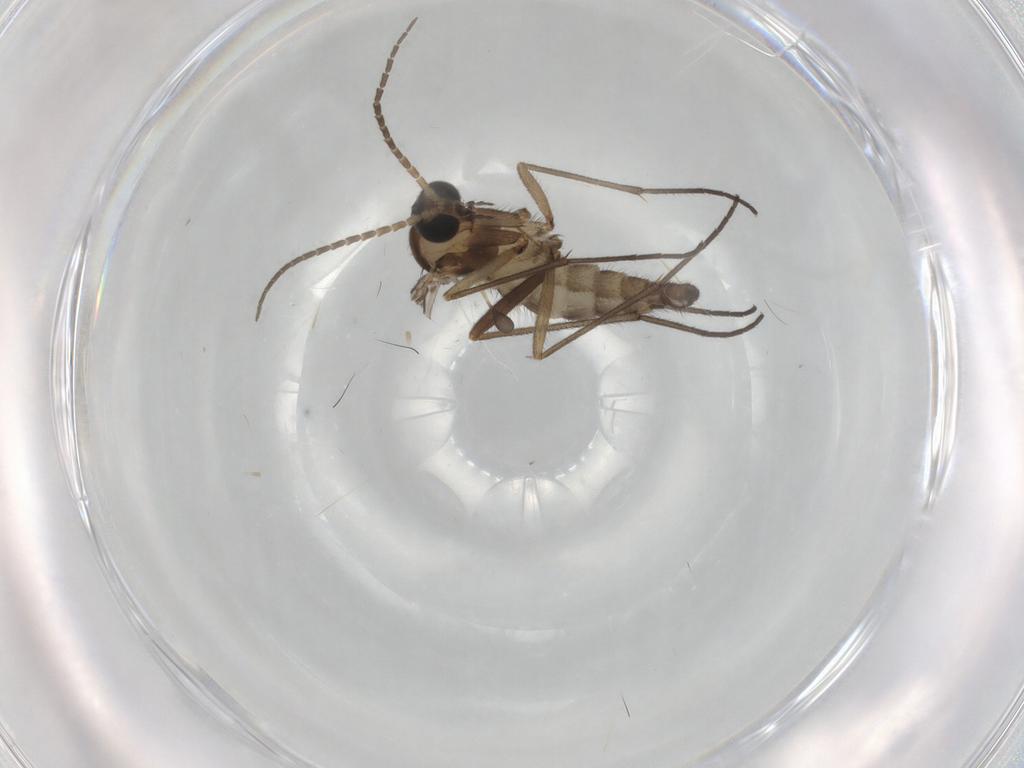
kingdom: Animalia
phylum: Arthropoda
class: Insecta
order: Diptera
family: Sciaridae
